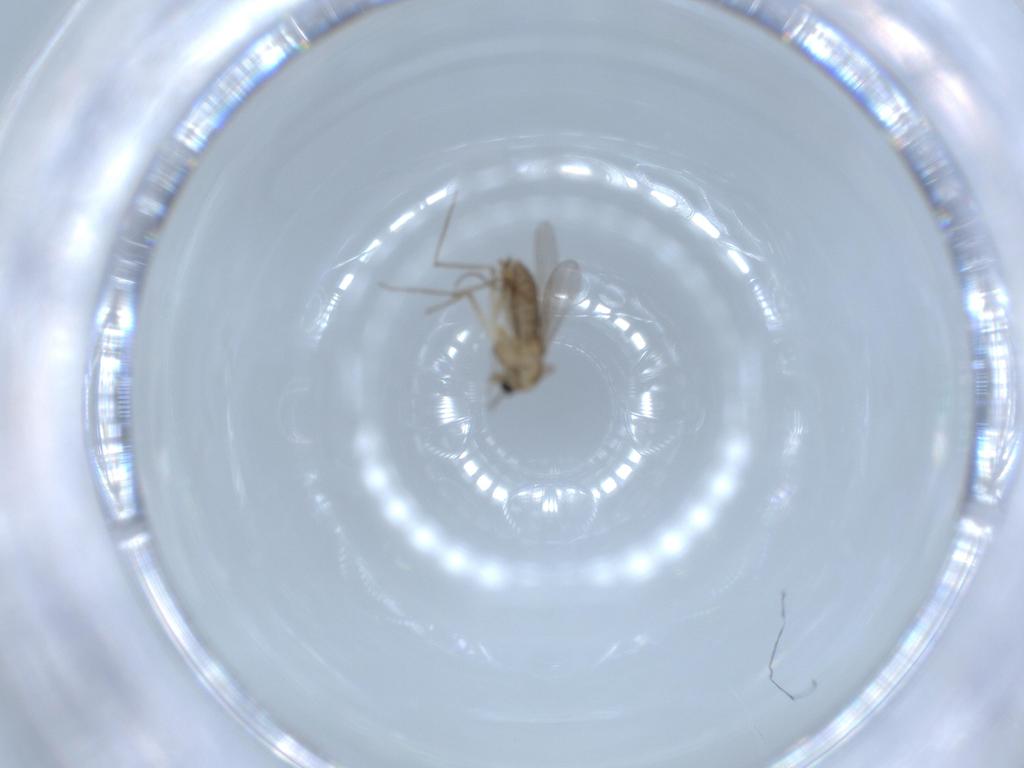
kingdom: Animalia
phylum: Arthropoda
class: Insecta
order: Diptera
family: Chironomidae
